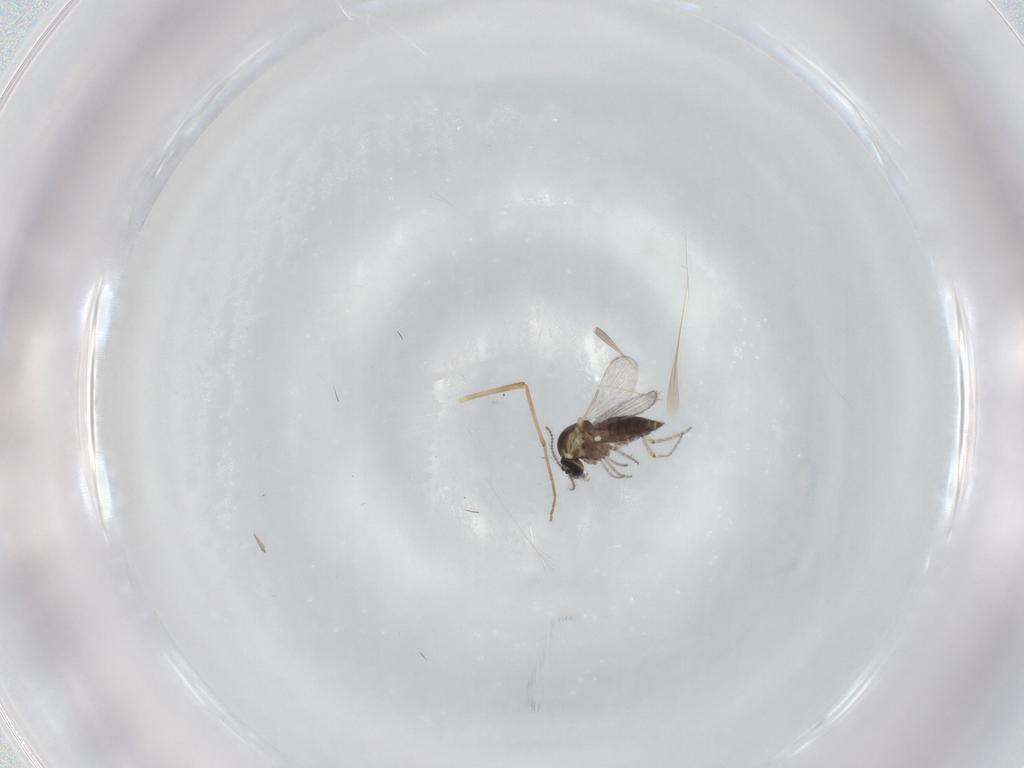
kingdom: Animalia
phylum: Arthropoda
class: Insecta
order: Diptera
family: Ceratopogonidae
